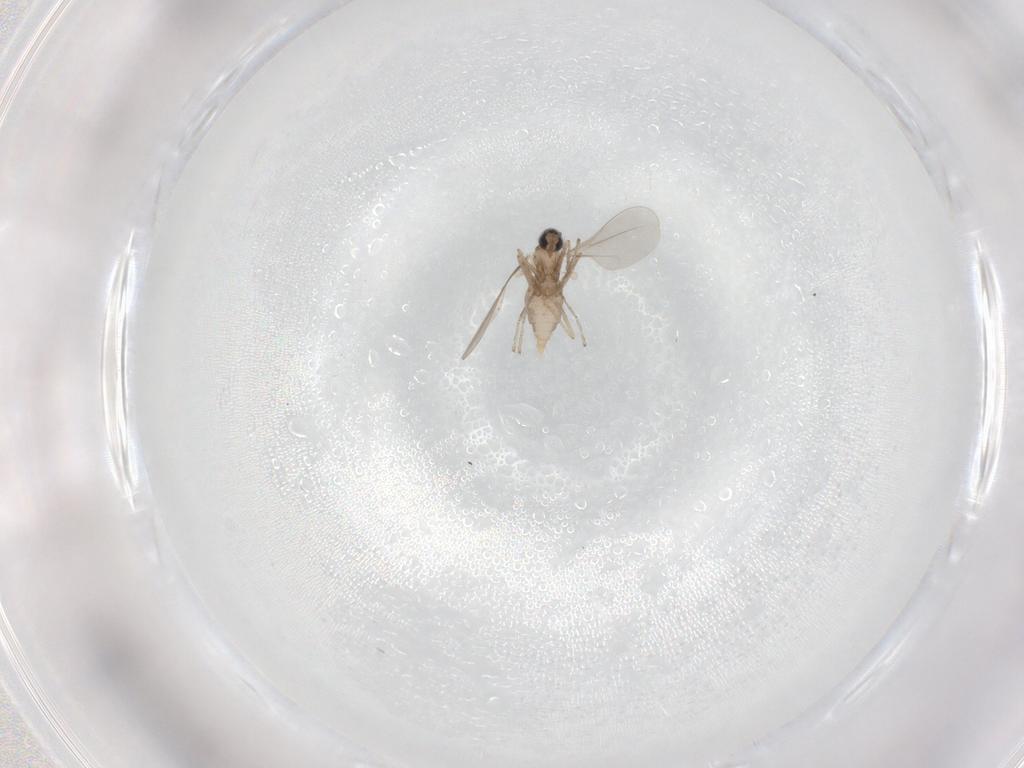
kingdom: Animalia
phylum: Arthropoda
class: Insecta
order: Diptera
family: Cecidomyiidae
